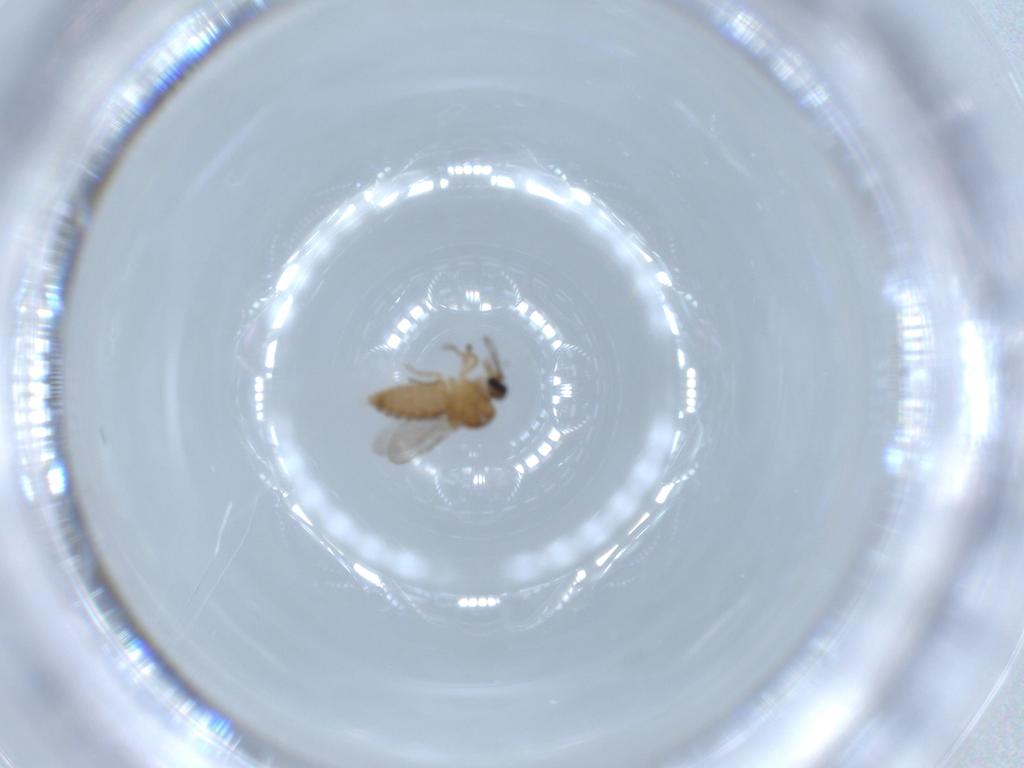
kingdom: Animalia
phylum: Arthropoda
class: Insecta
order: Diptera
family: Ceratopogonidae
